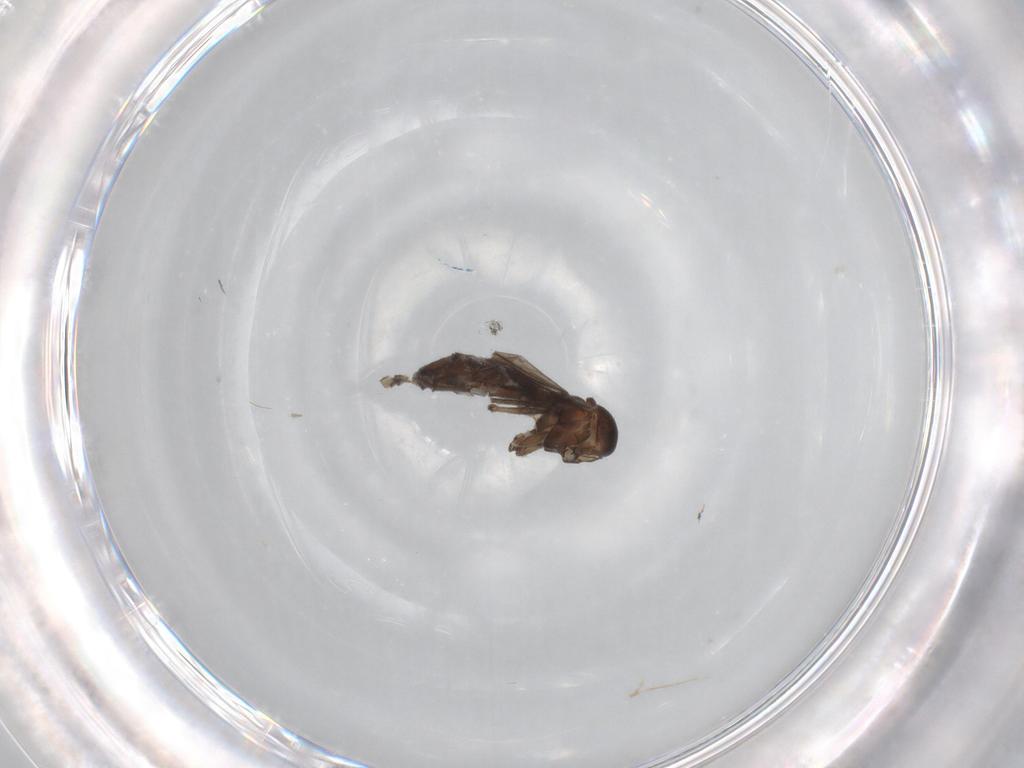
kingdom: Animalia
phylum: Arthropoda
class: Insecta
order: Diptera
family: Sciaridae
